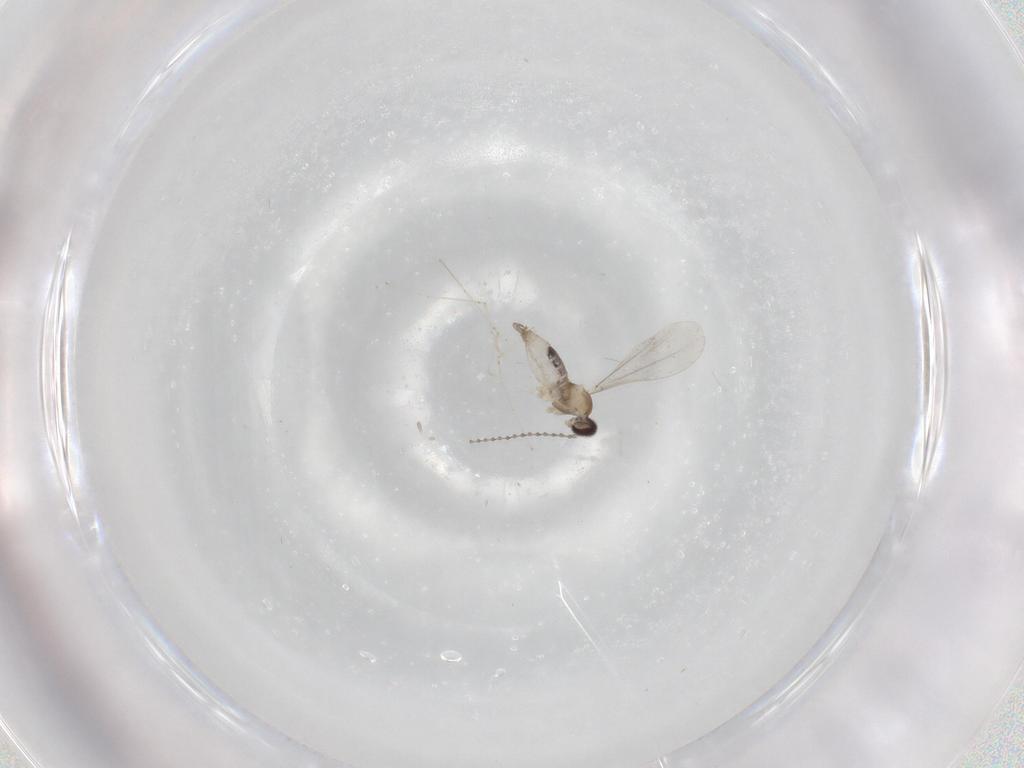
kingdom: Animalia
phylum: Arthropoda
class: Insecta
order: Diptera
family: Cecidomyiidae
